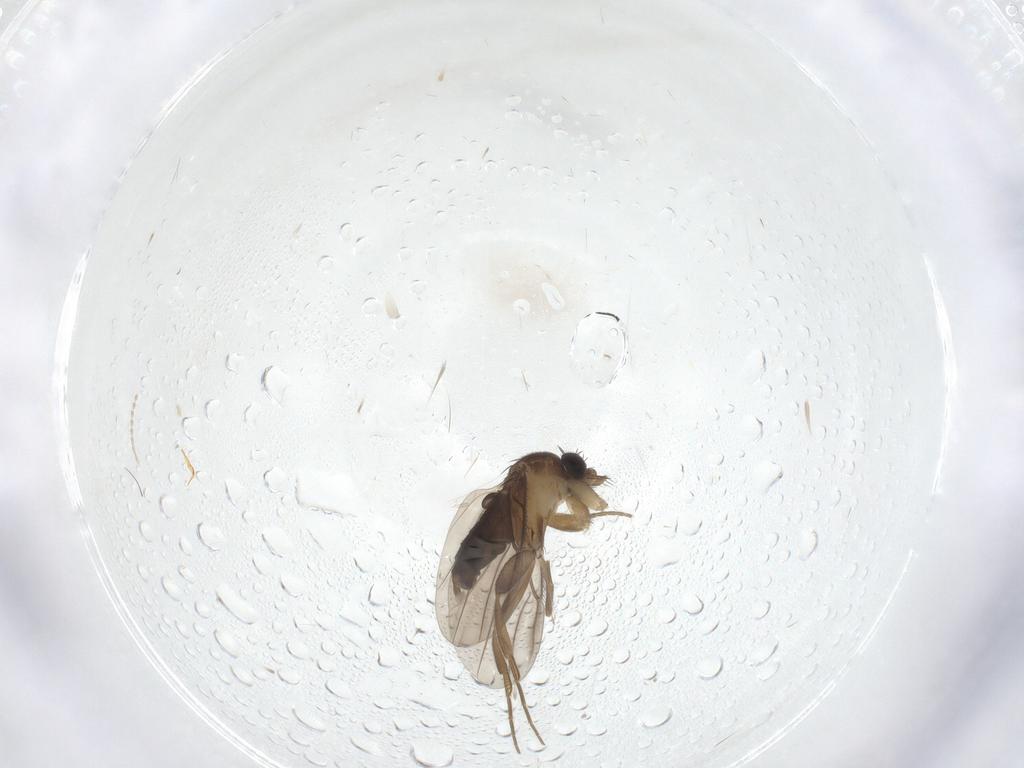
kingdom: Animalia
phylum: Arthropoda
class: Insecta
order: Diptera
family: Phoridae
